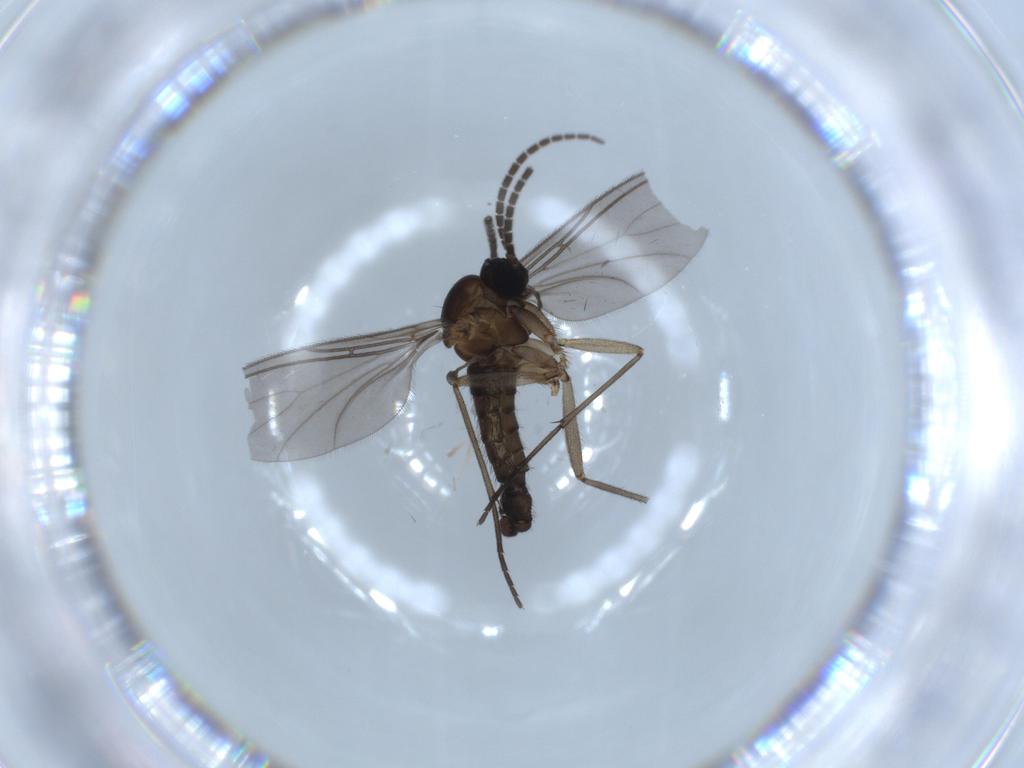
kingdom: Animalia
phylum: Arthropoda
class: Insecta
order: Diptera
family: Sciaridae
